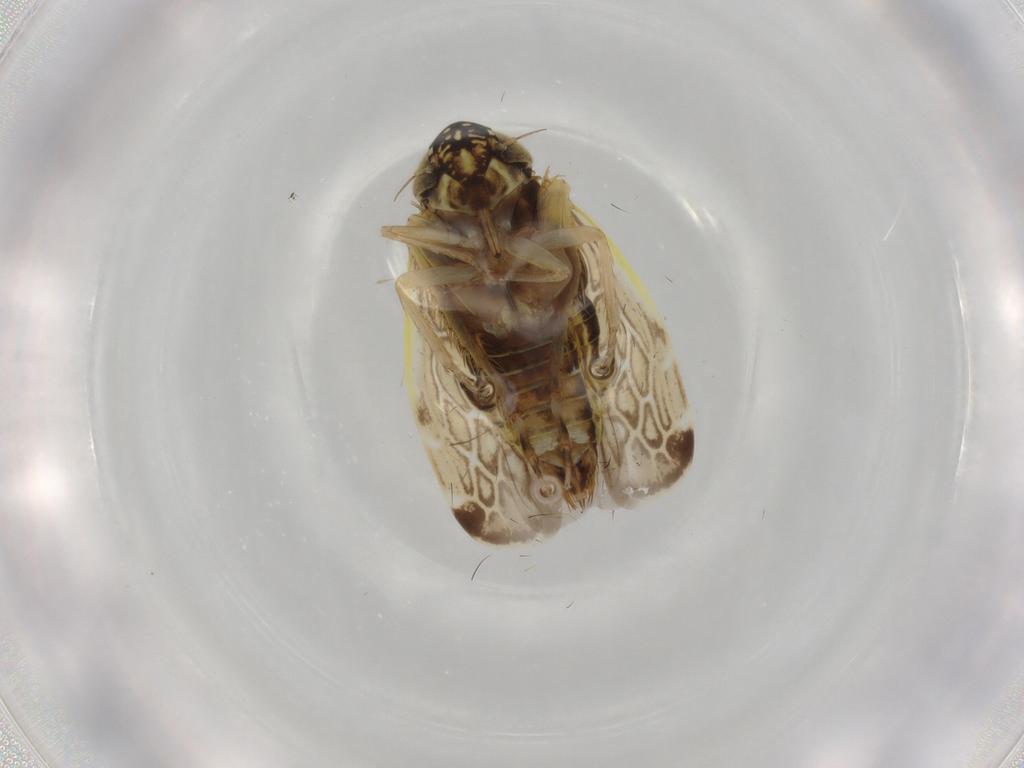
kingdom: Animalia
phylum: Arthropoda
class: Insecta
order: Hemiptera
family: Cicadellidae
